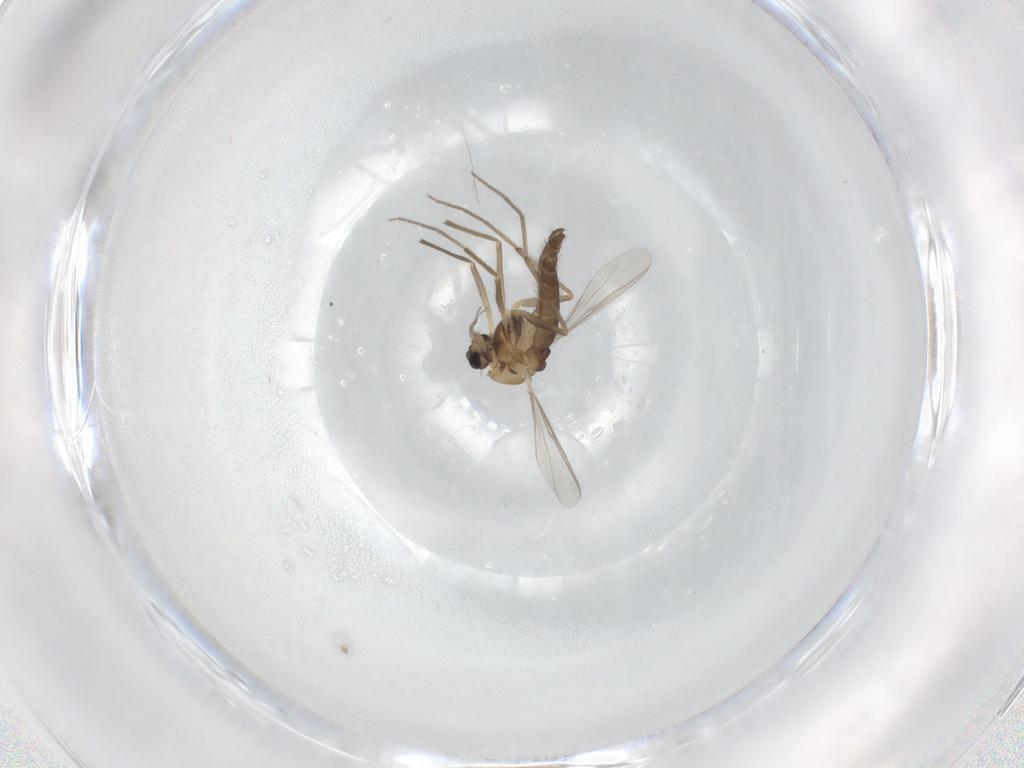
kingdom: Animalia
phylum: Arthropoda
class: Insecta
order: Diptera
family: Chironomidae
